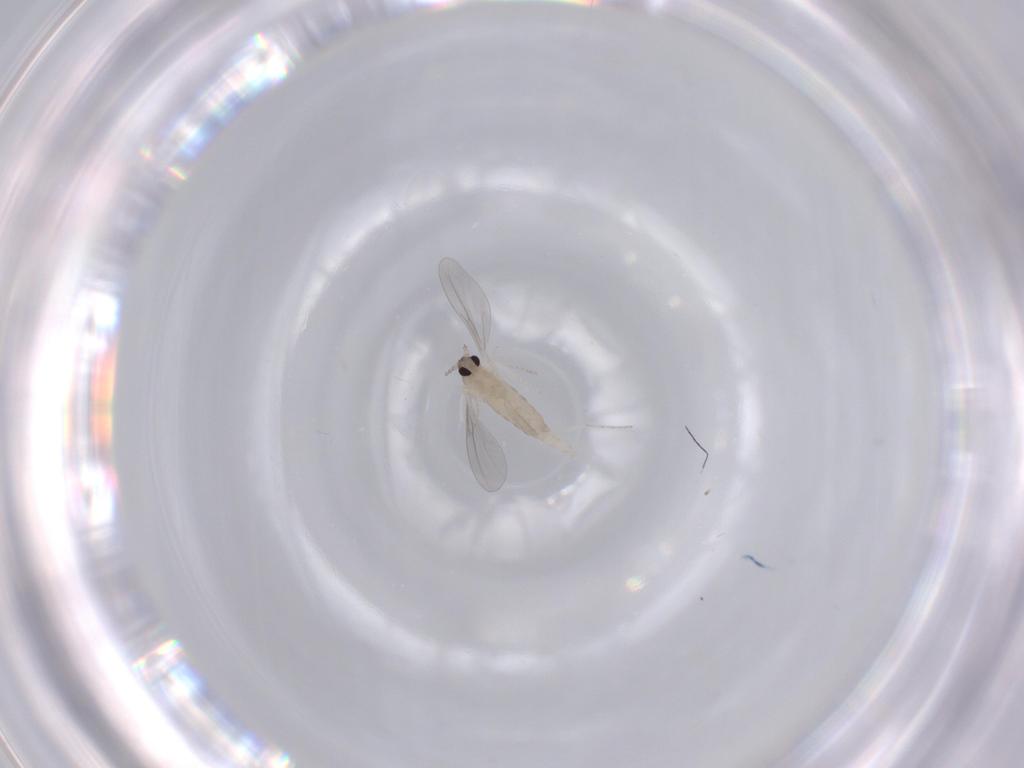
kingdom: Animalia
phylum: Arthropoda
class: Insecta
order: Diptera
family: Cecidomyiidae
